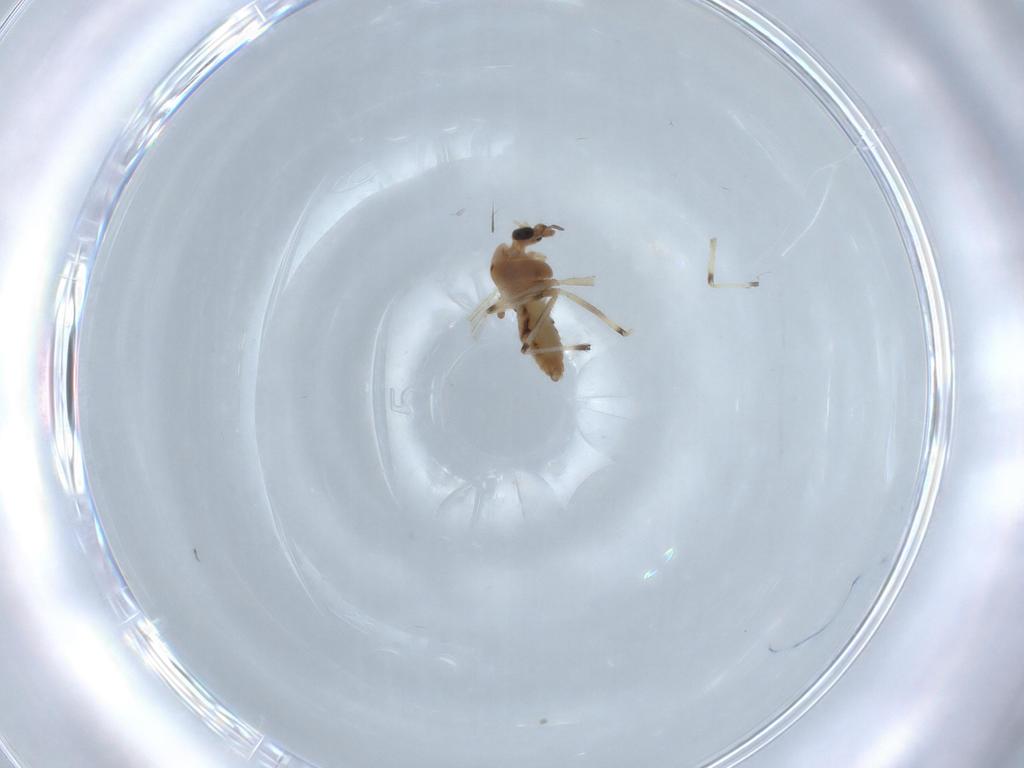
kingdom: Animalia
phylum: Arthropoda
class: Insecta
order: Diptera
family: Chironomidae
